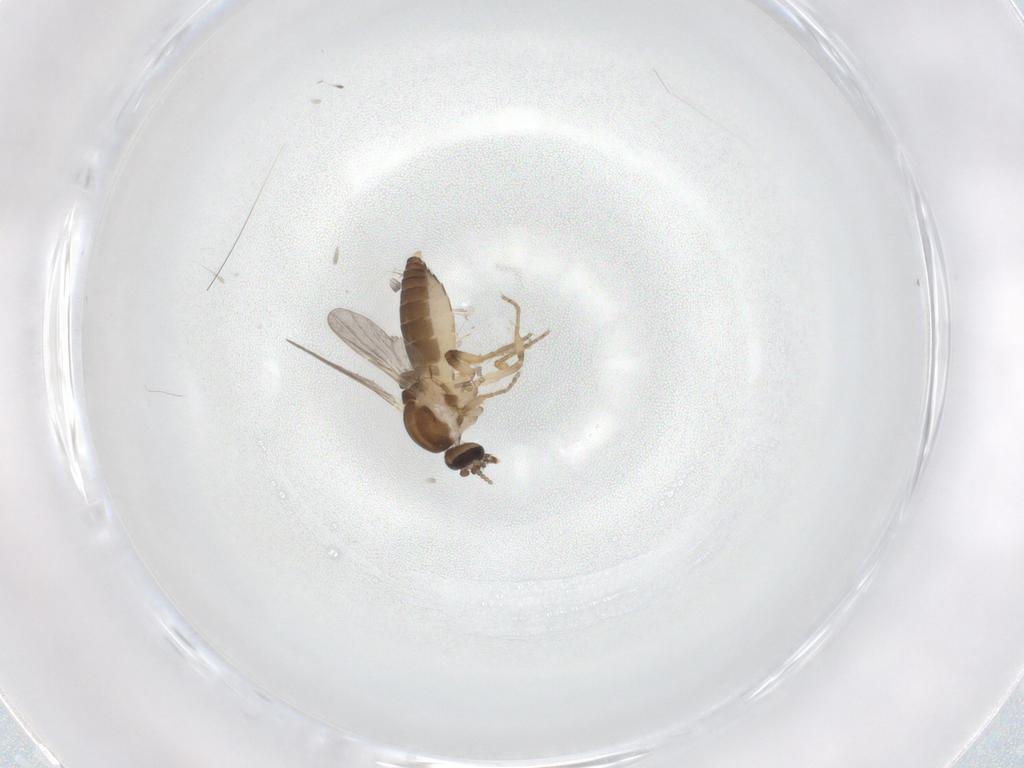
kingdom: Animalia
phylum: Arthropoda
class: Insecta
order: Diptera
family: Ceratopogonidae
